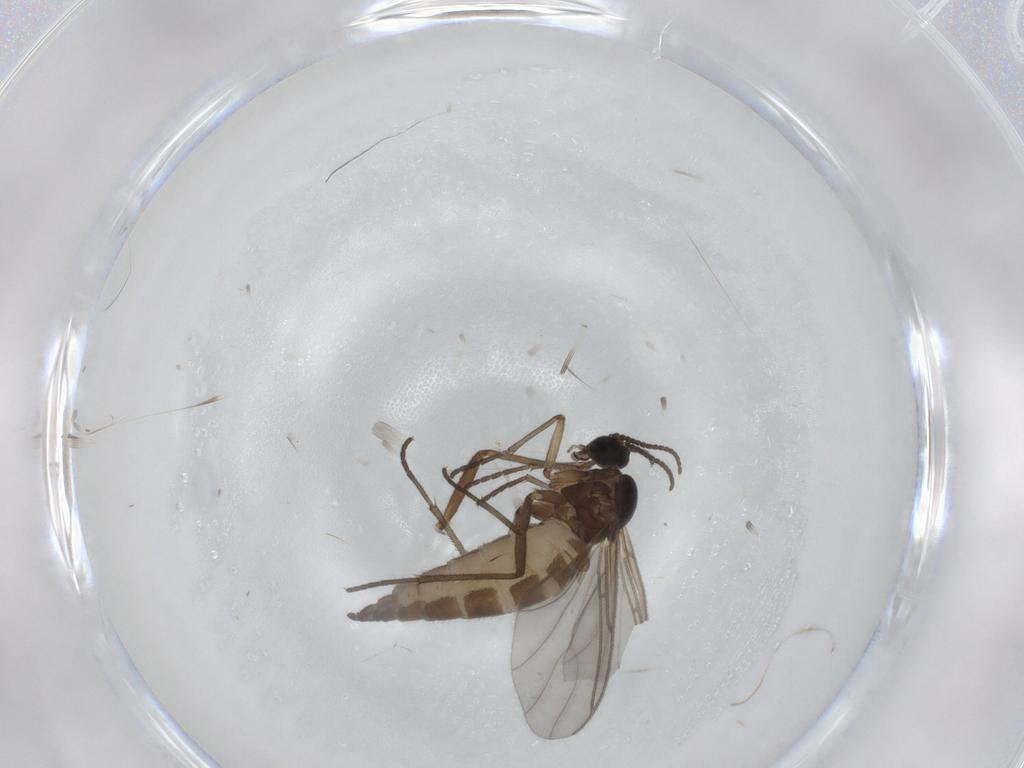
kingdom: Animalia
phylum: Arthropoda
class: Insecta
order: Diptera
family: Sciaridae
